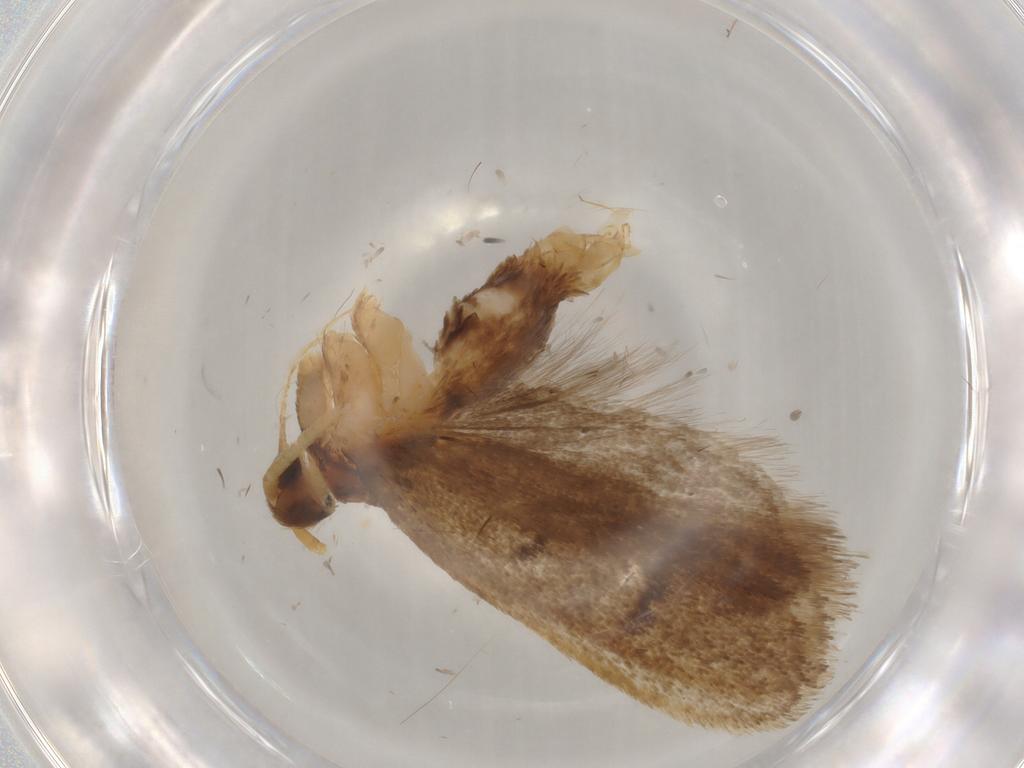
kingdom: Animalia
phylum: Arthropoda
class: Insecta
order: Lepidoptera
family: Lecithoceridae
